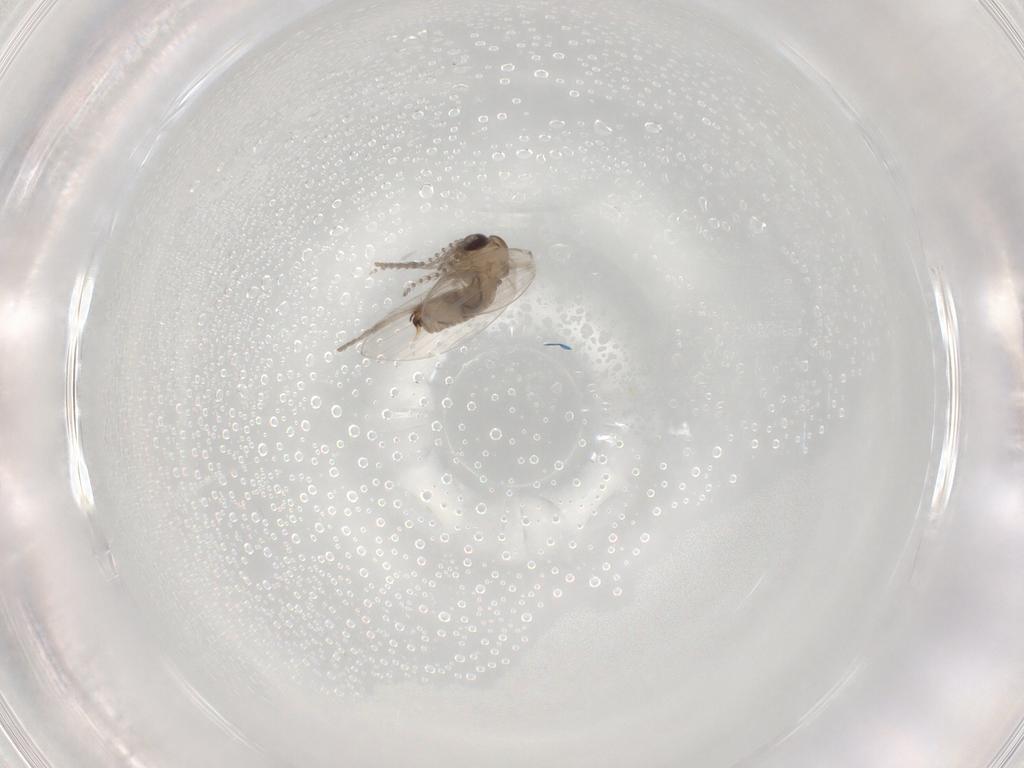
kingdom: Animalia
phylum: Arthropoda
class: Insecta
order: Diptera
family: Psychodidae
